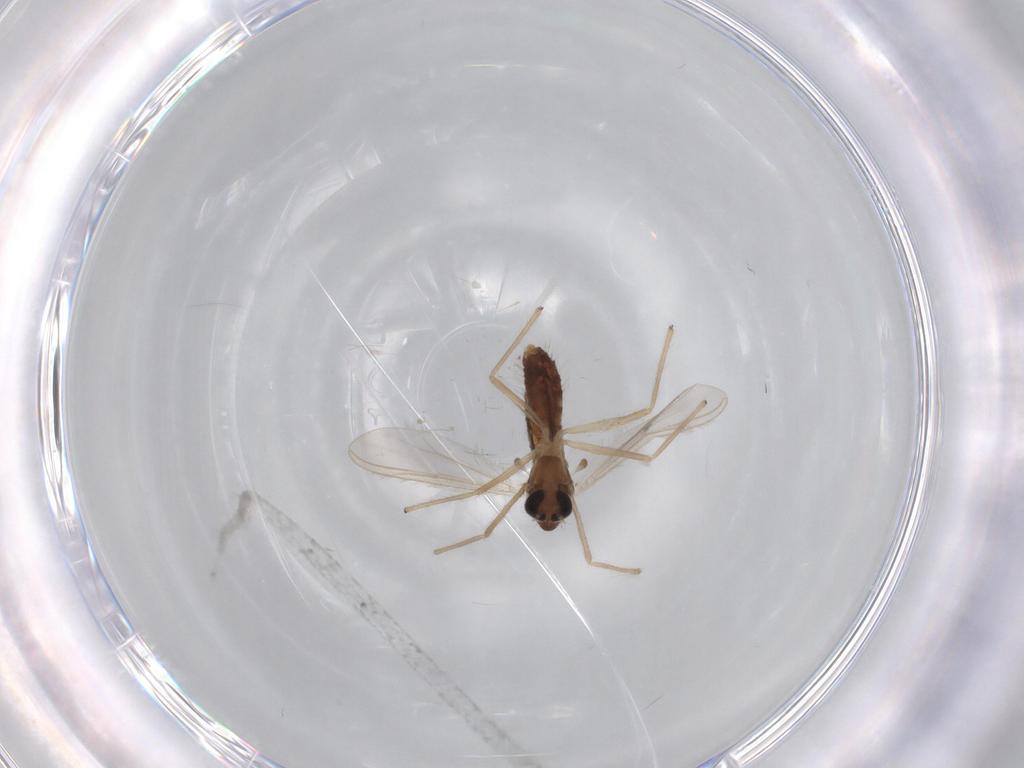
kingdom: Animalia
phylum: Arthropoda
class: Insecta
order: Diptera
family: Chironomidae
